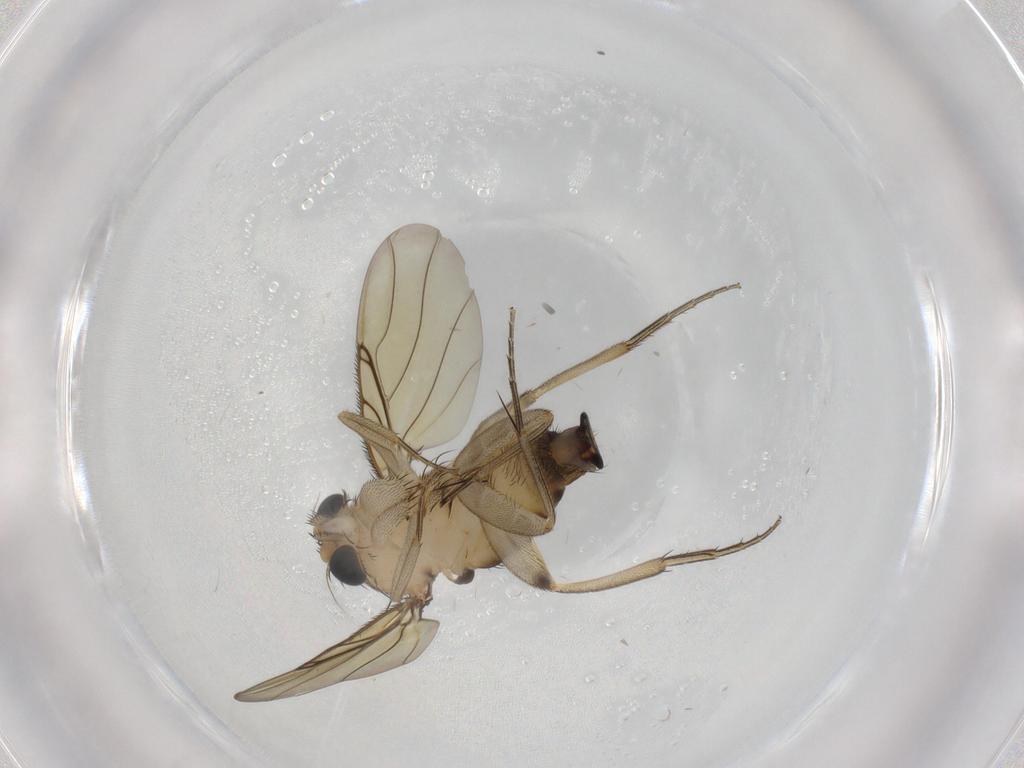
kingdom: Animalia
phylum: Arthropoda
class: Insecta
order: Diptera
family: Phoridae
